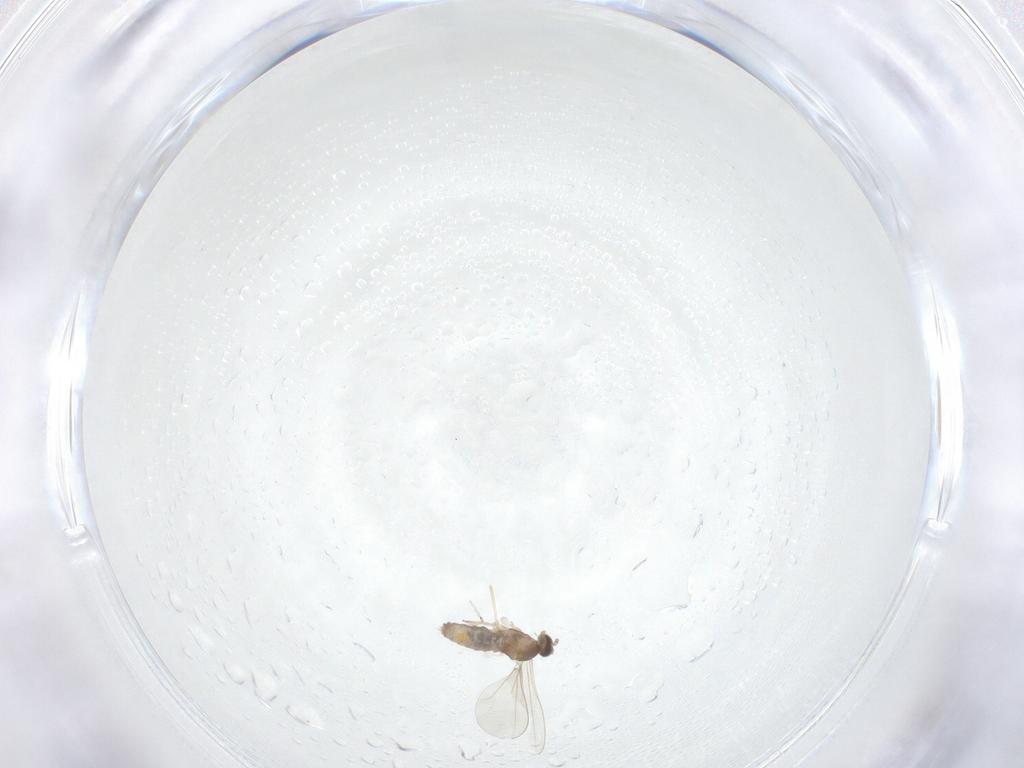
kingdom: Animalia
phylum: Arthropoda
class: Insecta
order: Diptera
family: Cecidomyiidae
